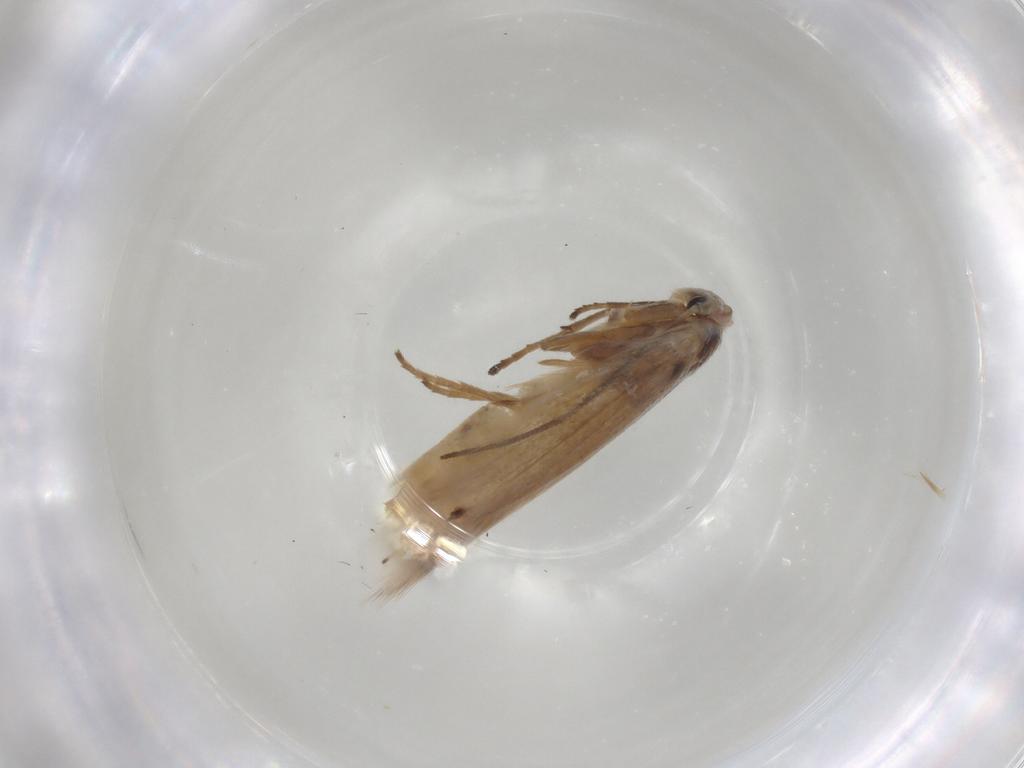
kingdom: Animalia
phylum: Arthropoda
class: Insecta
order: Lepidoptera
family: Bucculatricidae
